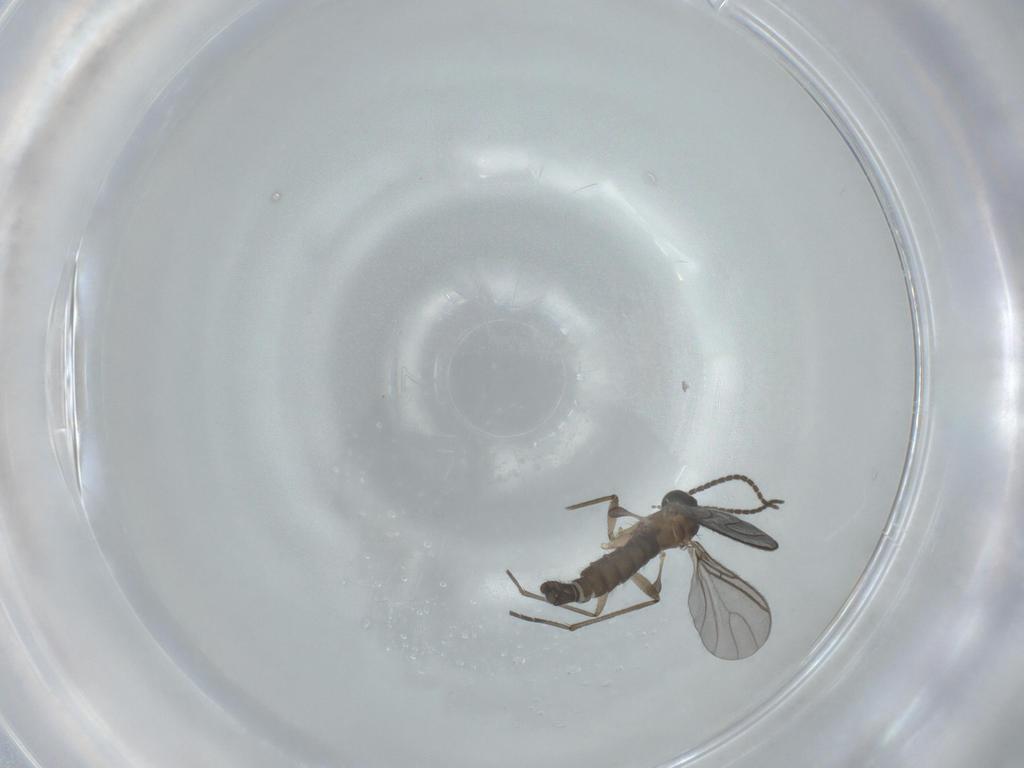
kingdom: Animalia
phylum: Arthropoda
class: Insecta
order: Diptera
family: Sciaridae
